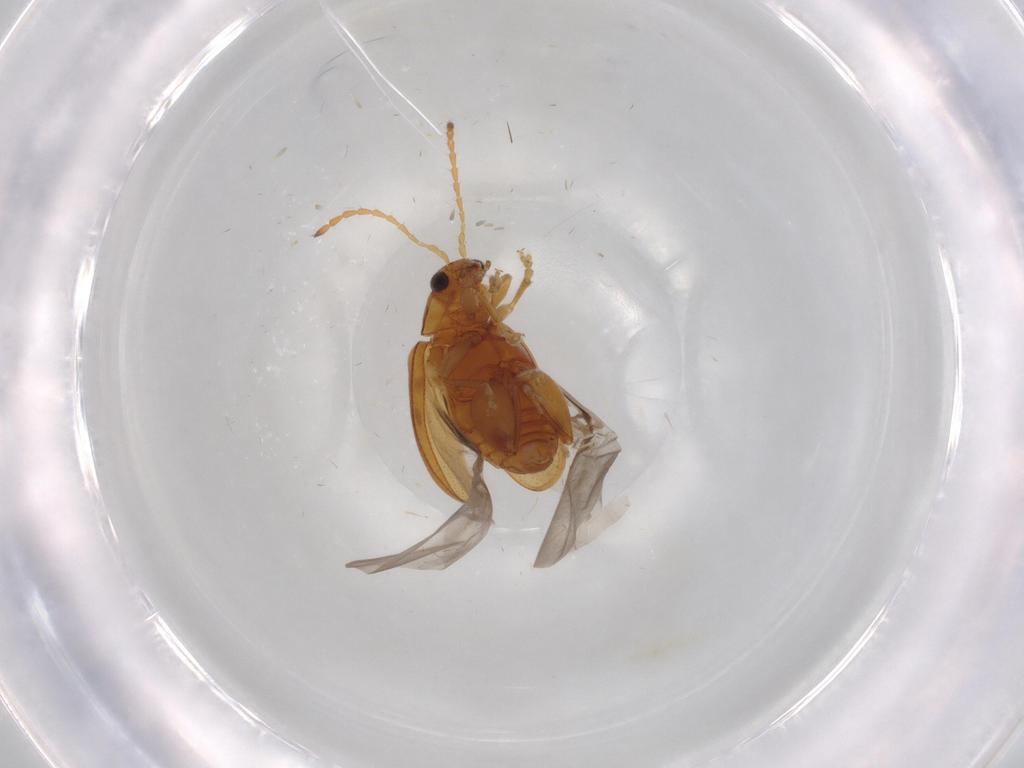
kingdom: Animalia
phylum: Arthropoda
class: Insecta
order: Coleoptera
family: Chrysomelidae
